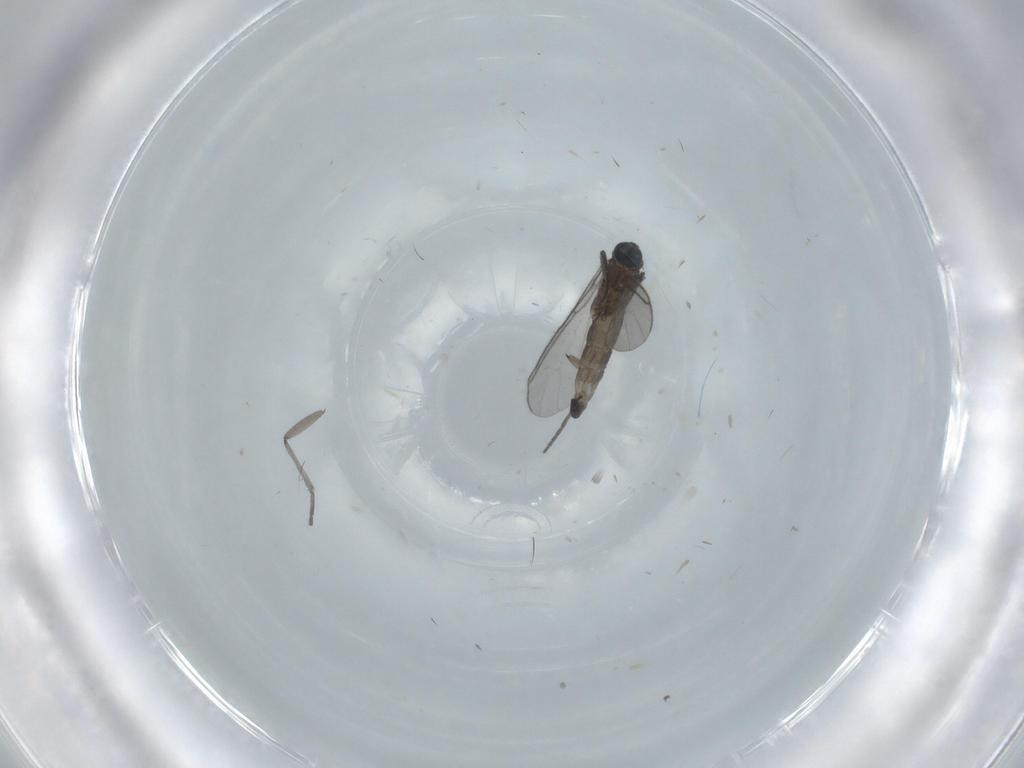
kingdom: Animalia
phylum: Arthropoda
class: Insecta
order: Diptera
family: Cecidomyiidae
